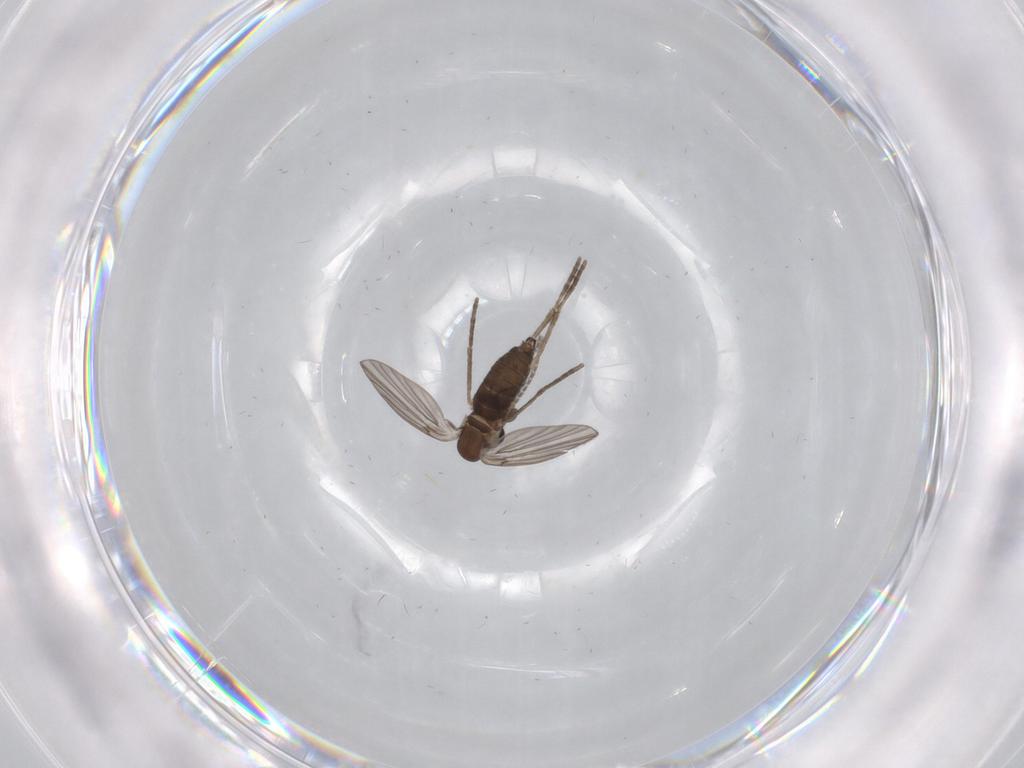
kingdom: Animalia
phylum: Arthropoda
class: Insecta
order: Diptera
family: Psychodidae
